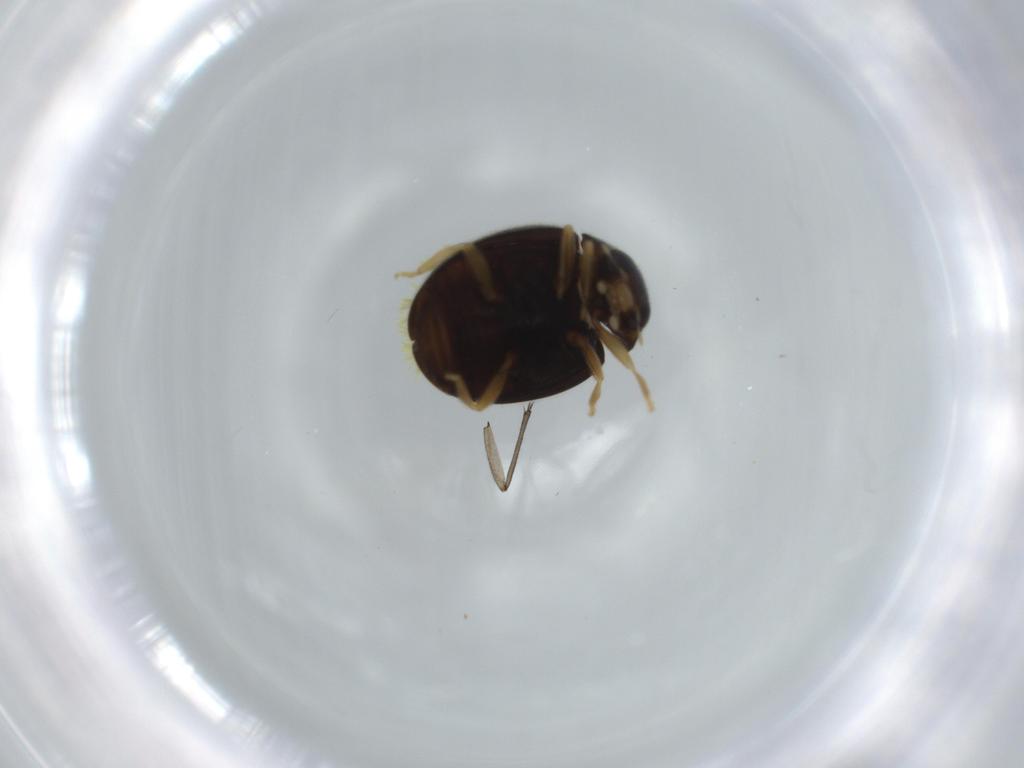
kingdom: Animalia
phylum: Arthropoda
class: Insecta
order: Coleoptera
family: Coccinellidae
